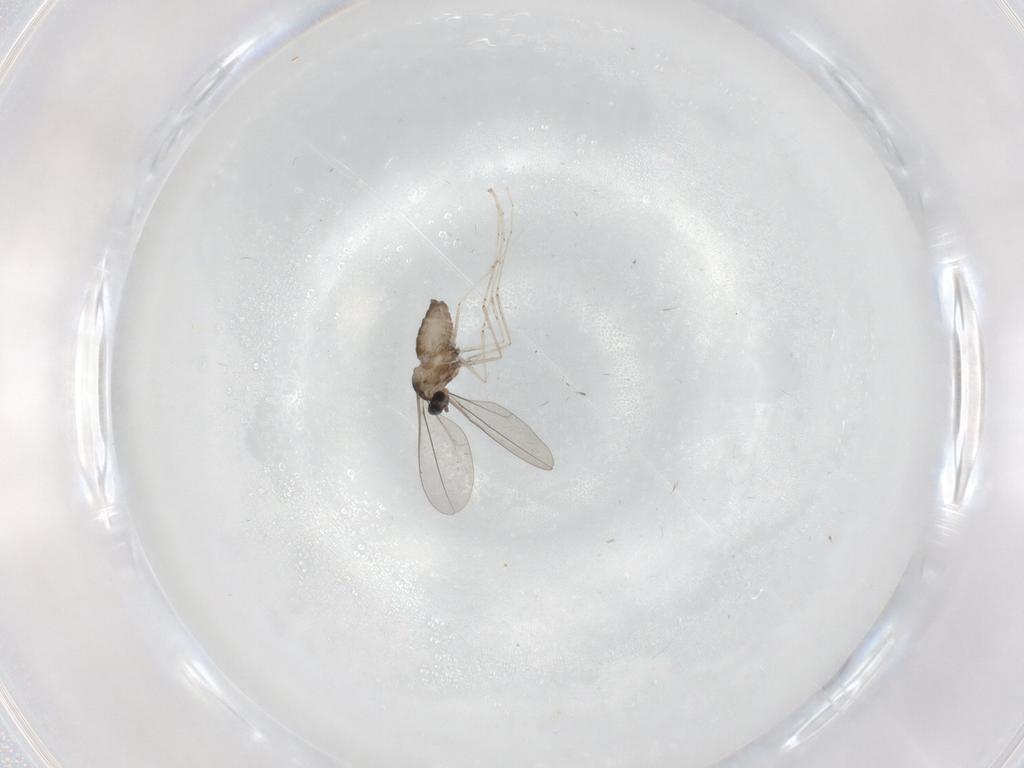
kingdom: Animalia
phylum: Arthropoda
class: Insecta
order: Diptera
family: Cecidomyiidae
